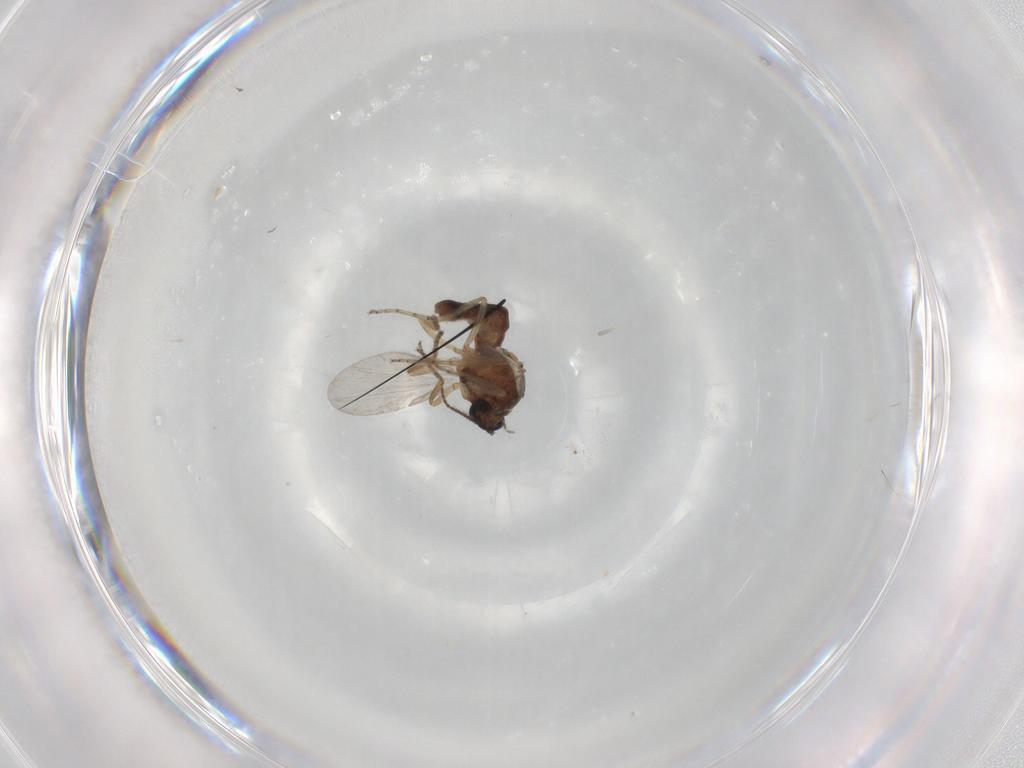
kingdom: Animalia
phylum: Arthropoda
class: Insecta
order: Diptera
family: Ceratopogonidae
